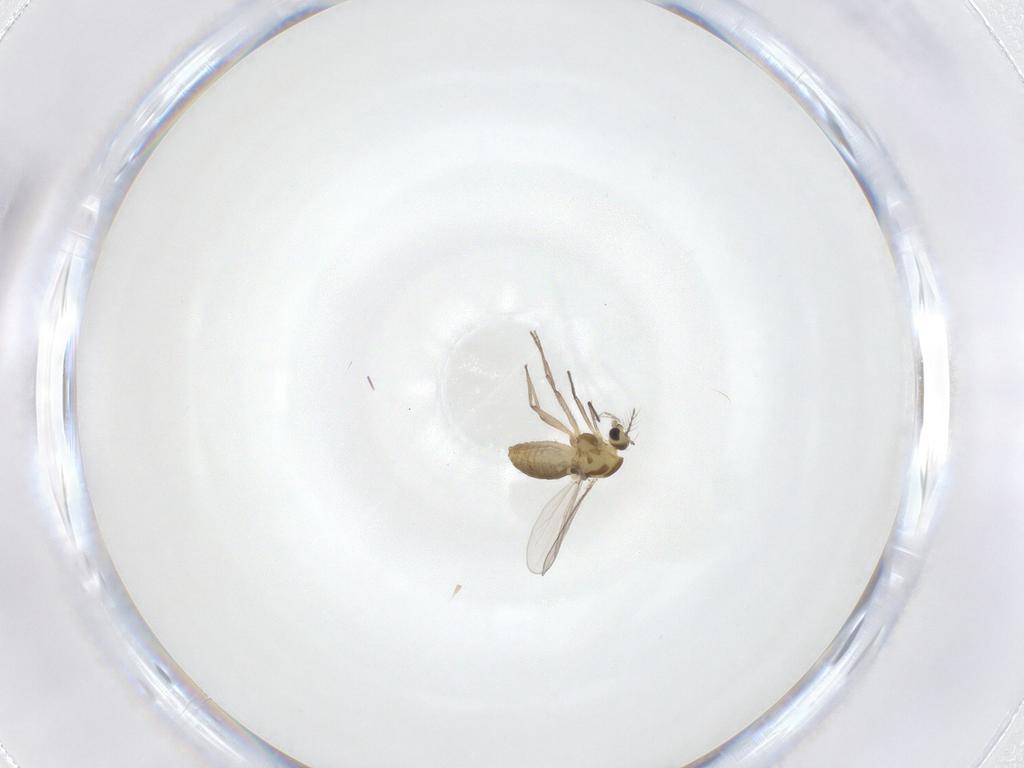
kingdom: Animalia
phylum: Arthropoda
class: Insecta
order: Diptera
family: Chironomidae
